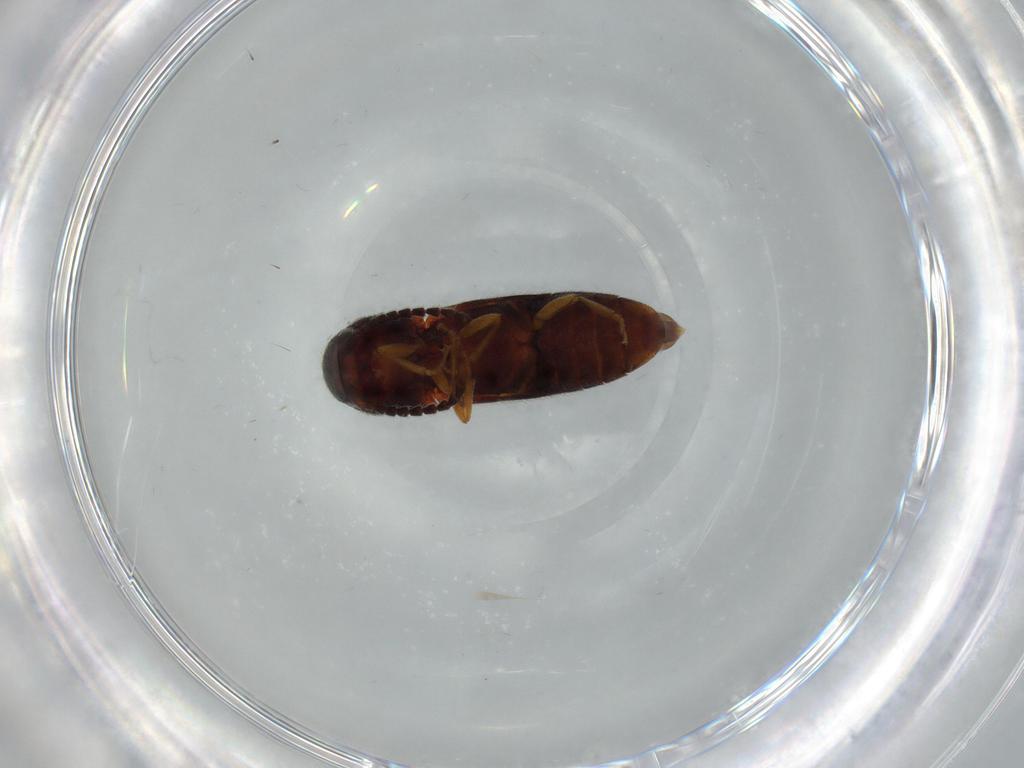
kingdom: Animalia
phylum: Arthropoda
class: Insecta
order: Coleoptera
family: Eucnemidae
